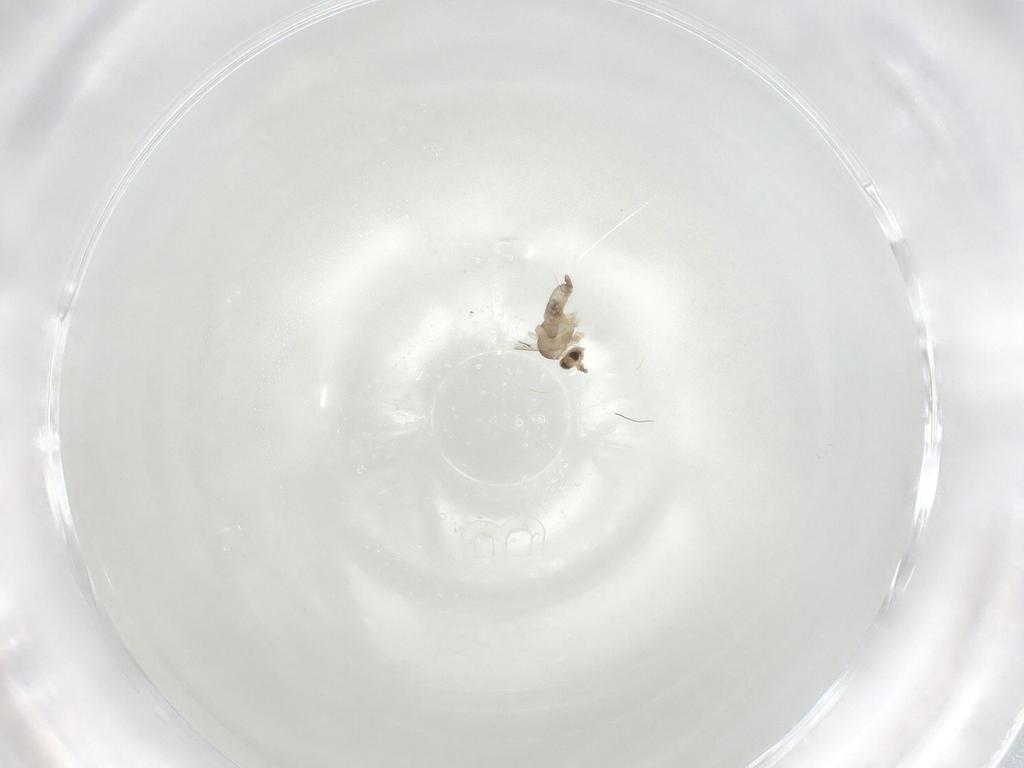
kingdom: Animalia
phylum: Arthropoda
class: Insecta
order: Diptera
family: Cecidomyiidae
